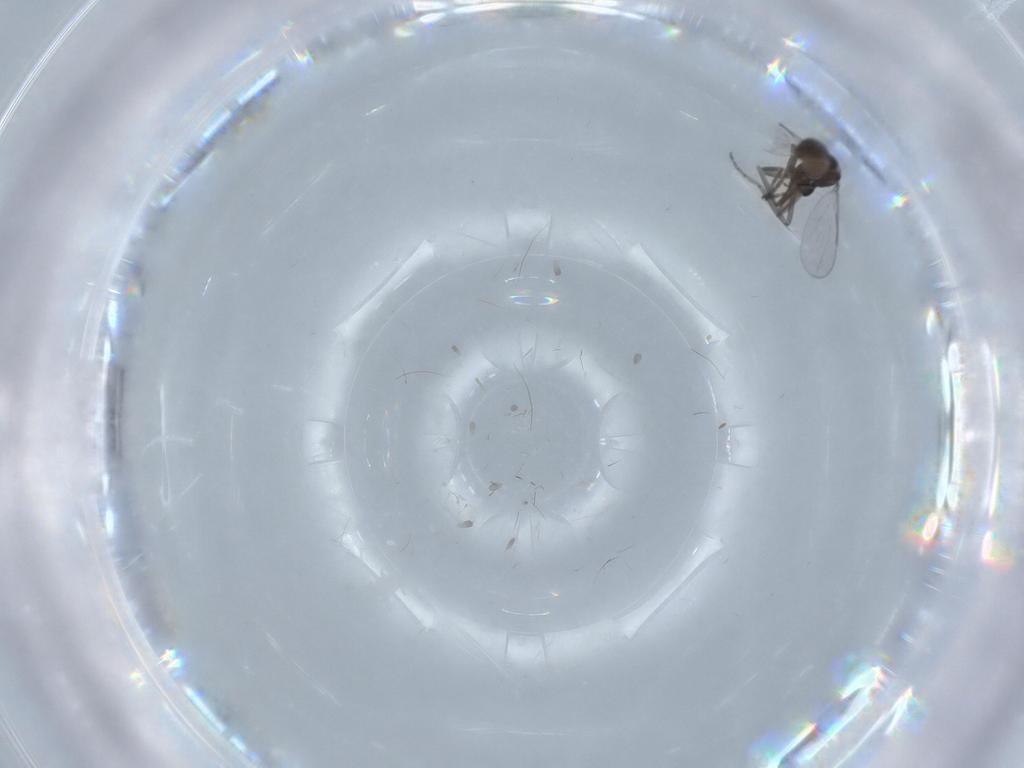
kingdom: Animalia
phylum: Arthropoda
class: Insecta
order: Diptera
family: Ceratopogonidae
